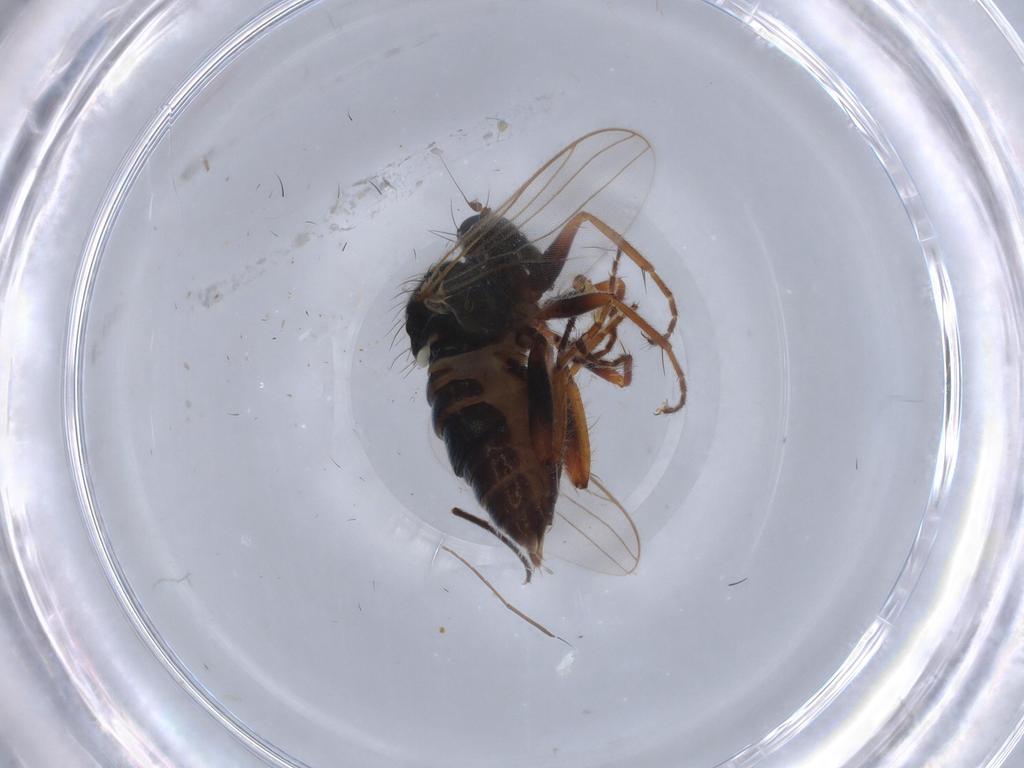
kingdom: Animalia
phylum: Arthropoda
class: Insecta
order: Diptera
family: Hybotidae
